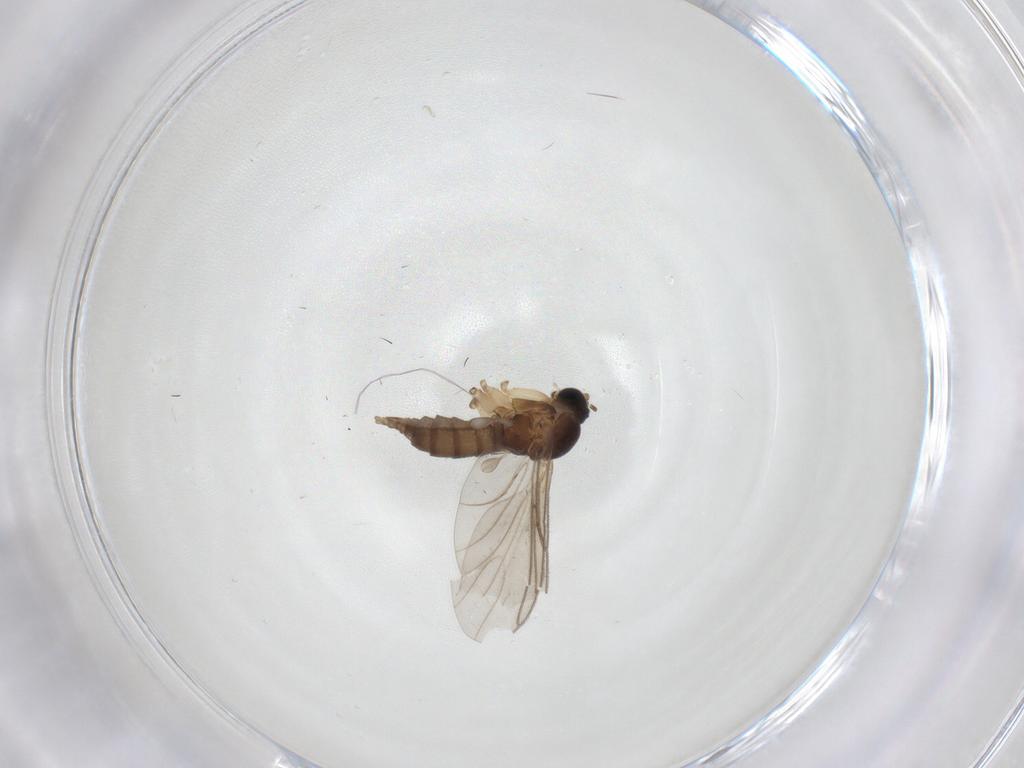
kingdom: Animalia
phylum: Arthropoda
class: Insecta
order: Diptera
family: Sciaridae
